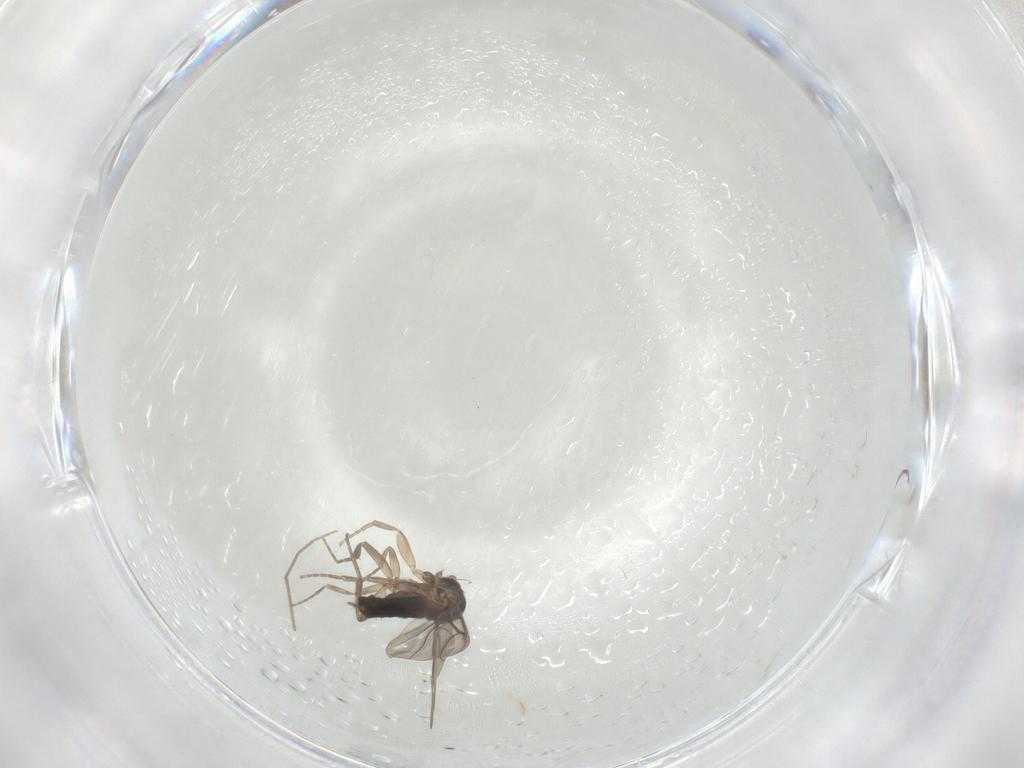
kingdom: Animalia
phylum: Arthropoda
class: Insecta
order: Diptera
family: Phoridae
